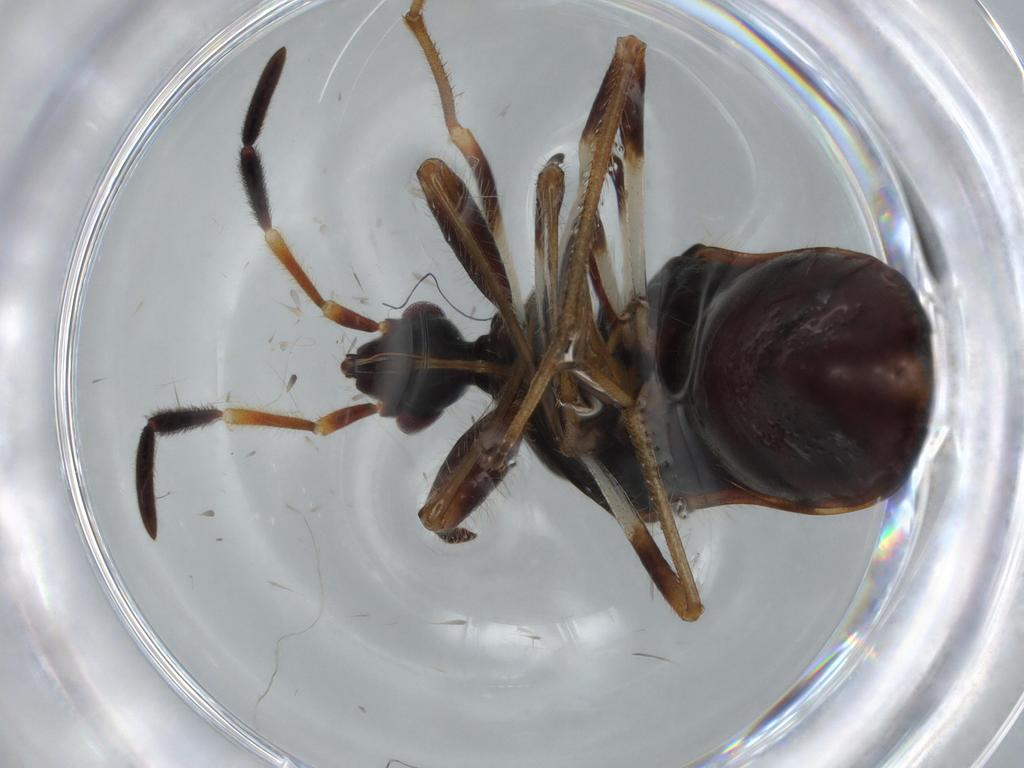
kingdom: Animalia
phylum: Arthropoda
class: Insecta
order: Hemiptera
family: Rhyparochromidae
